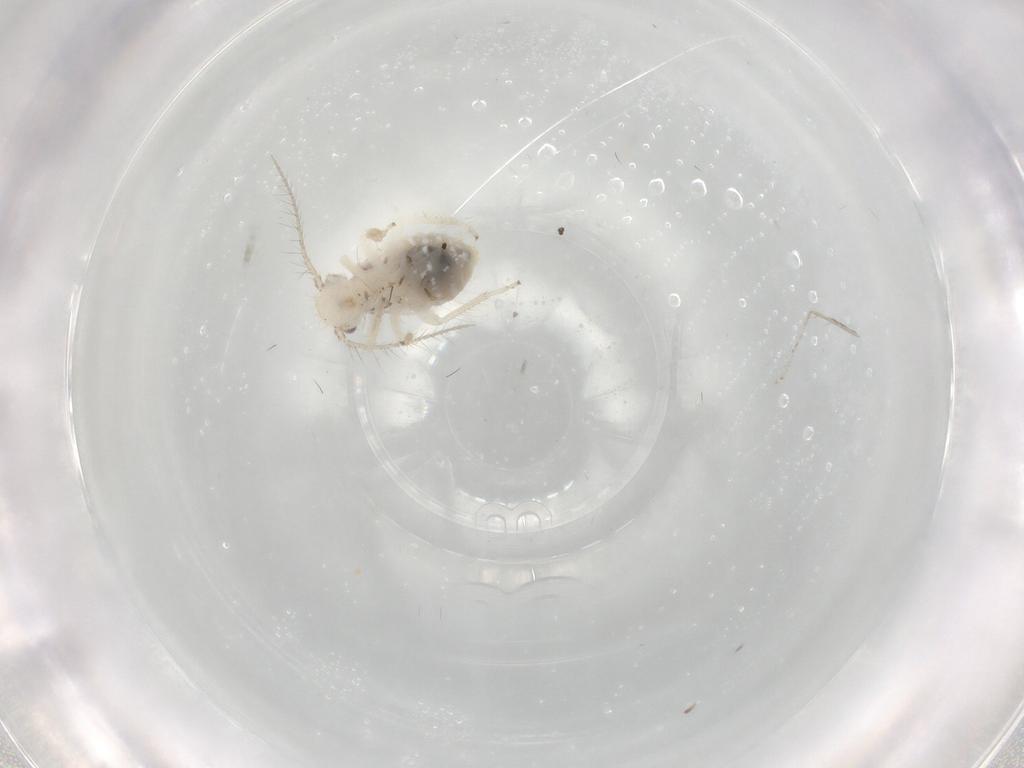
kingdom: Animalia
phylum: Arthropoda
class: Insecta
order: Psocodea
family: Pseudocaeciliidae
